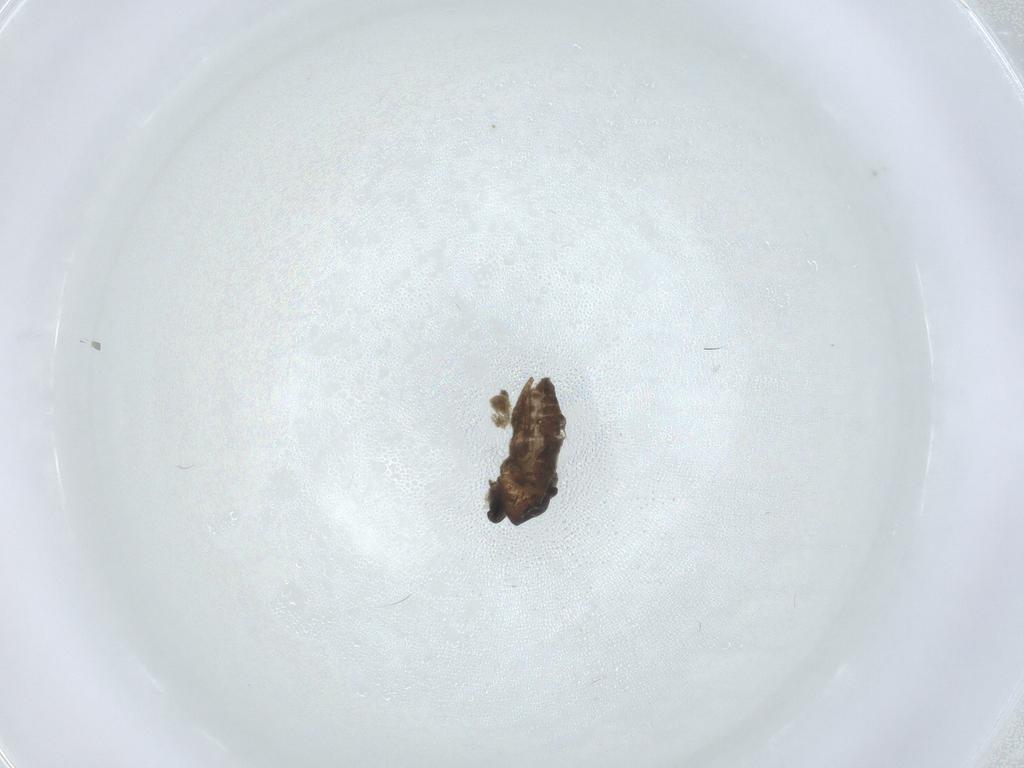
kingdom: Animalia
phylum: Arthropoda
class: Insecta
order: Diptera
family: Ceratopogonidae
